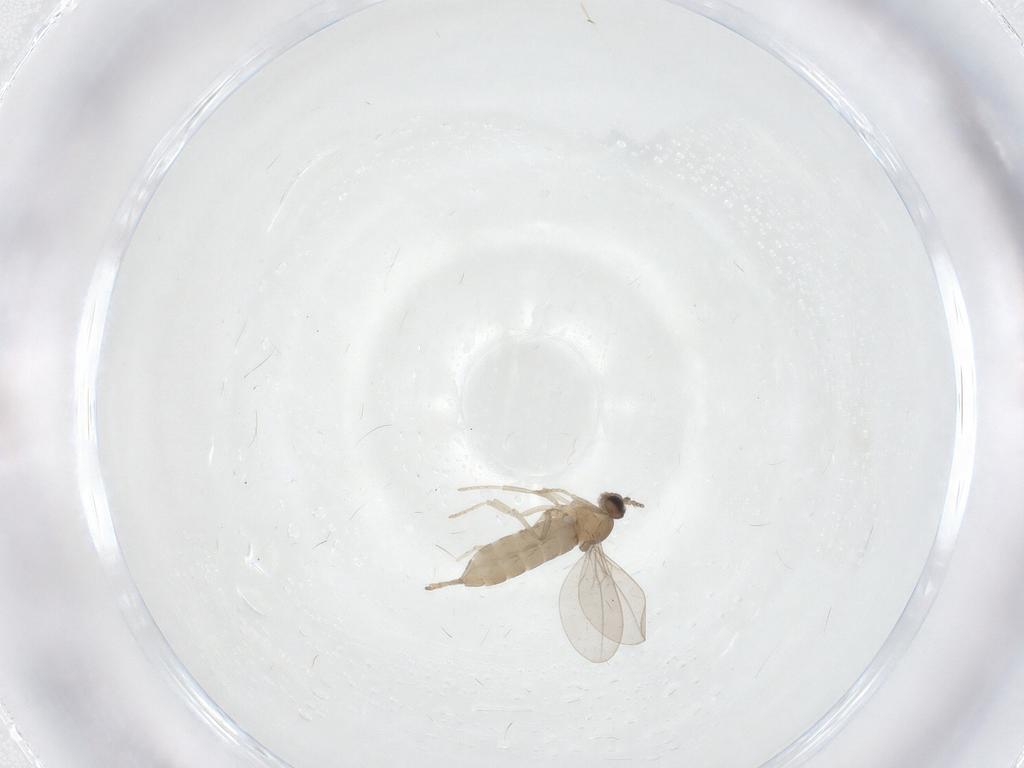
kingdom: Animalia
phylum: Arthropoda
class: Insecta
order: Diptera
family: Cecidomyiidae
